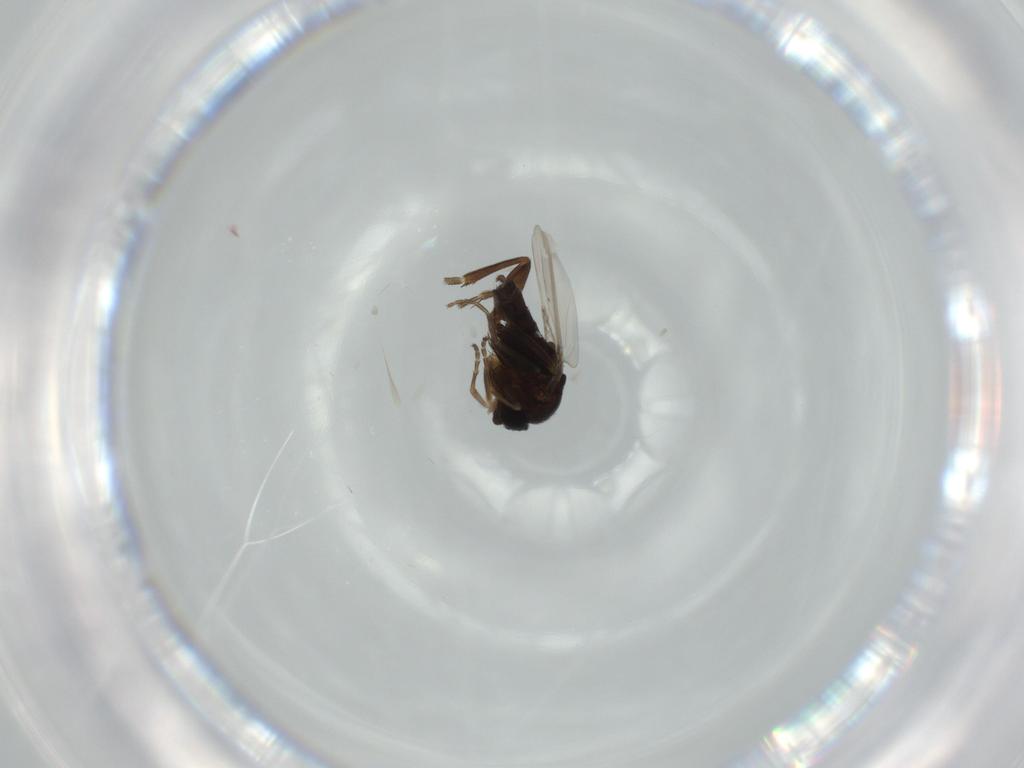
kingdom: Animalia
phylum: Arthropoda
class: Insecta
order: Diptera
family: Phoridae
